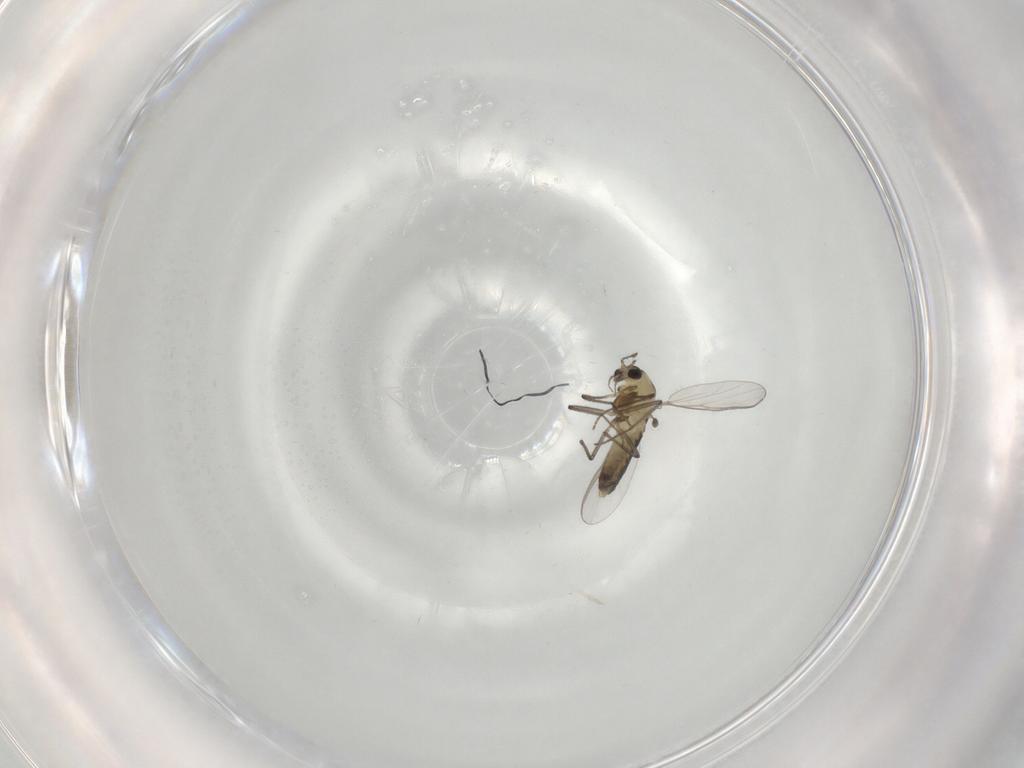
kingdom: Animalia
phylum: Arthropoda
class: Insecta
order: Diptera
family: Chironomidae
